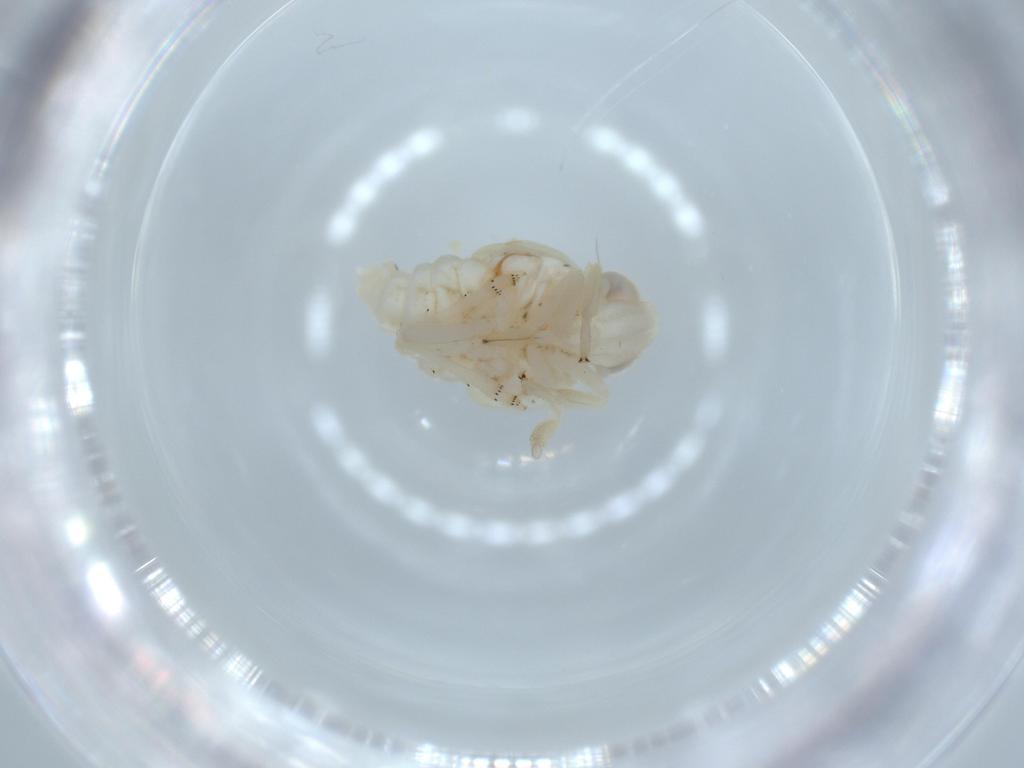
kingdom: Animalia
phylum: Arthropoda
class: Insecta
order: Hemiptera
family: Nogodinidae
